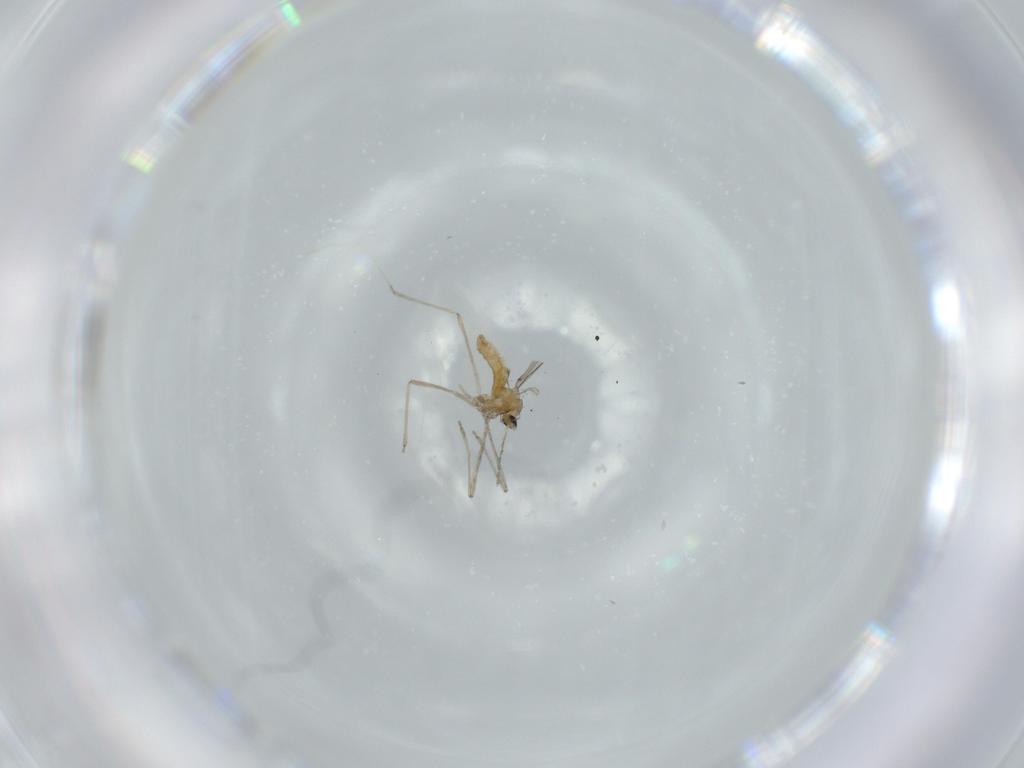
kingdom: Animalia
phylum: Arthropoda
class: Insecta
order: Diptera
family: Cecidomyiidae
